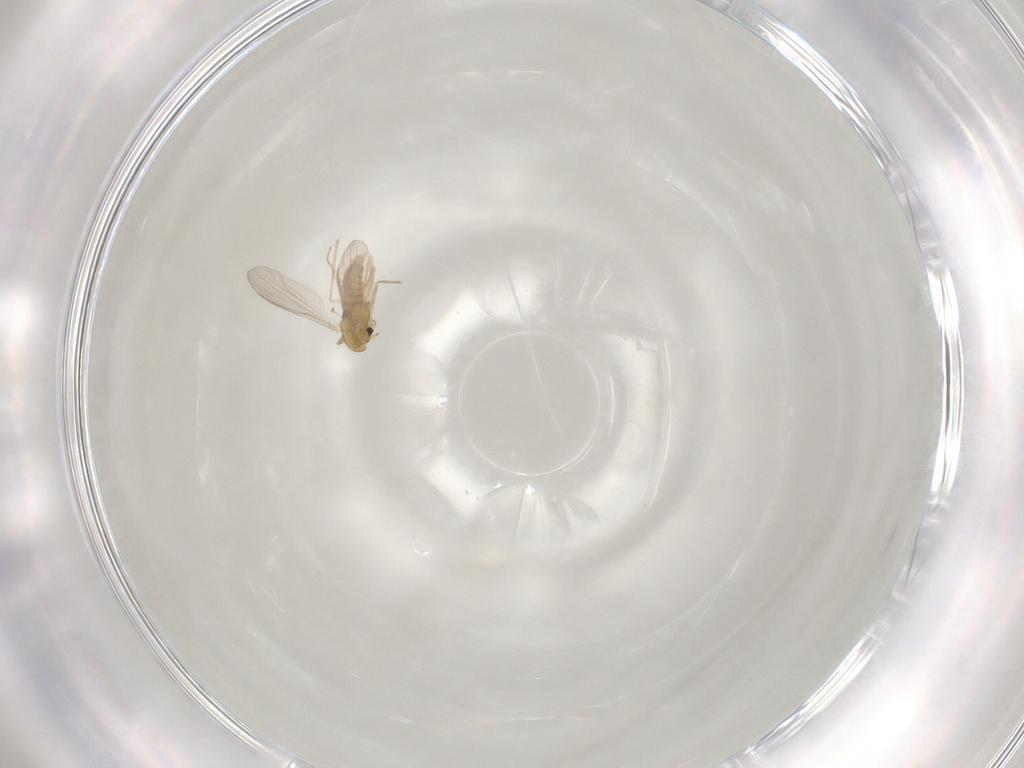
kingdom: Animalia
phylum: Arthropoda
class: Insecta
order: Diptera
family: Chironomidae
